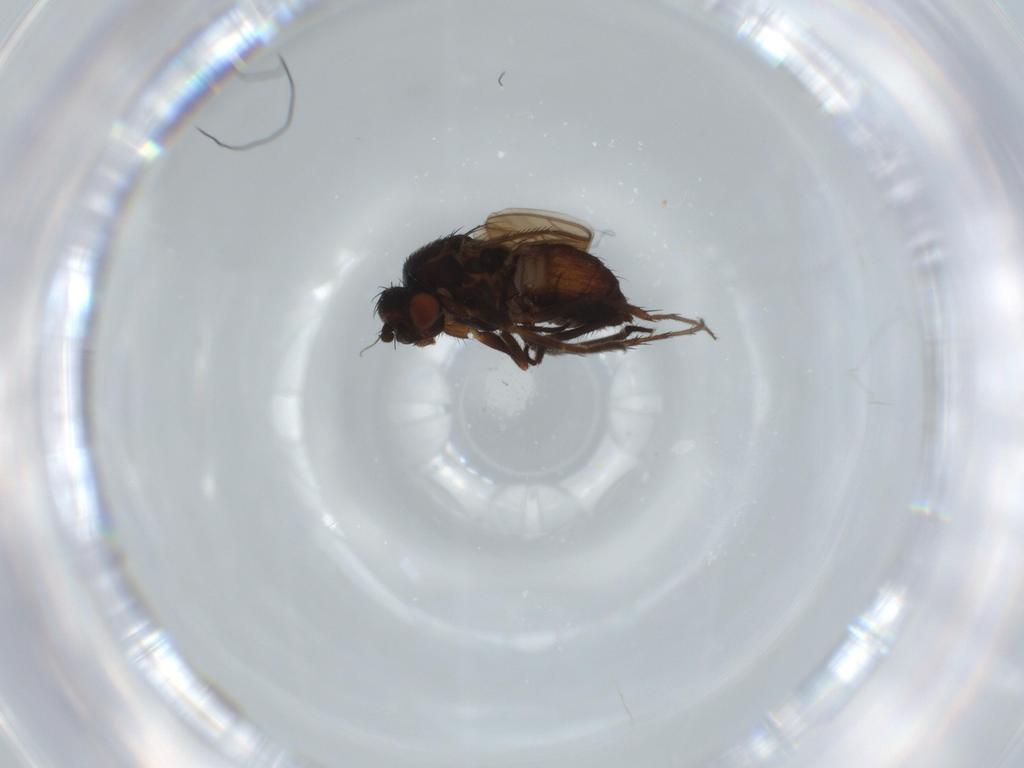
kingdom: Animalia
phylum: Arthropoda
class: Insecta
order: Diptera
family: Sphaeroceridae
